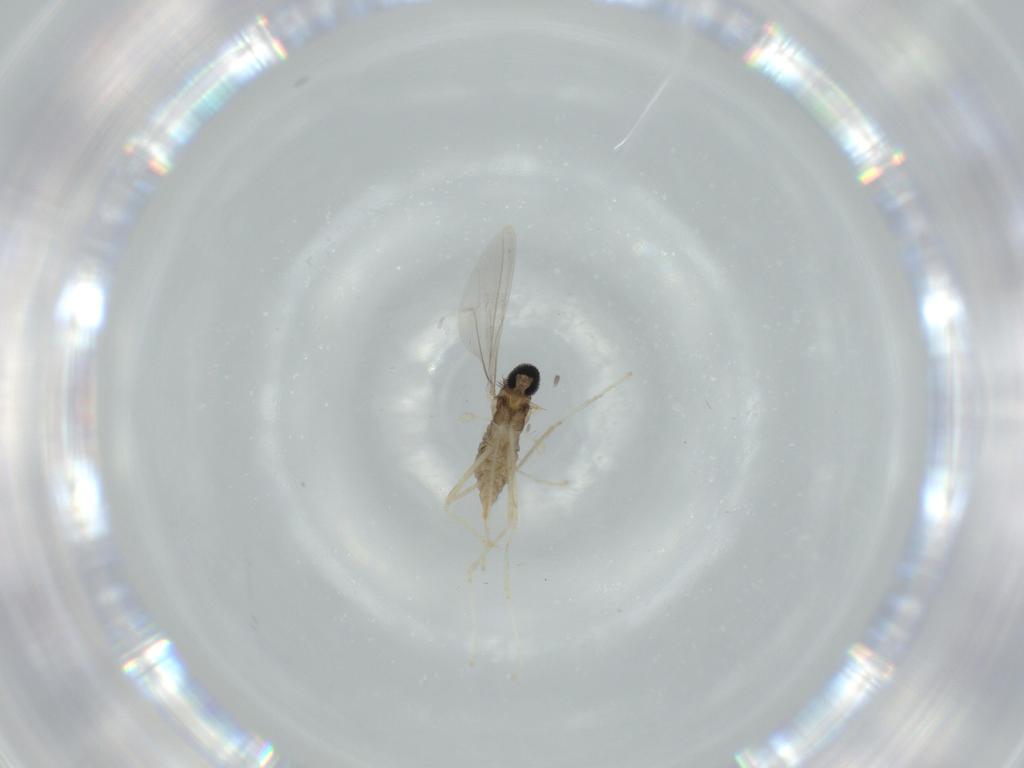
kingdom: Animalia
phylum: Arthropoda
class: Insecta
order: Diptera
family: Cecidomyiidae
